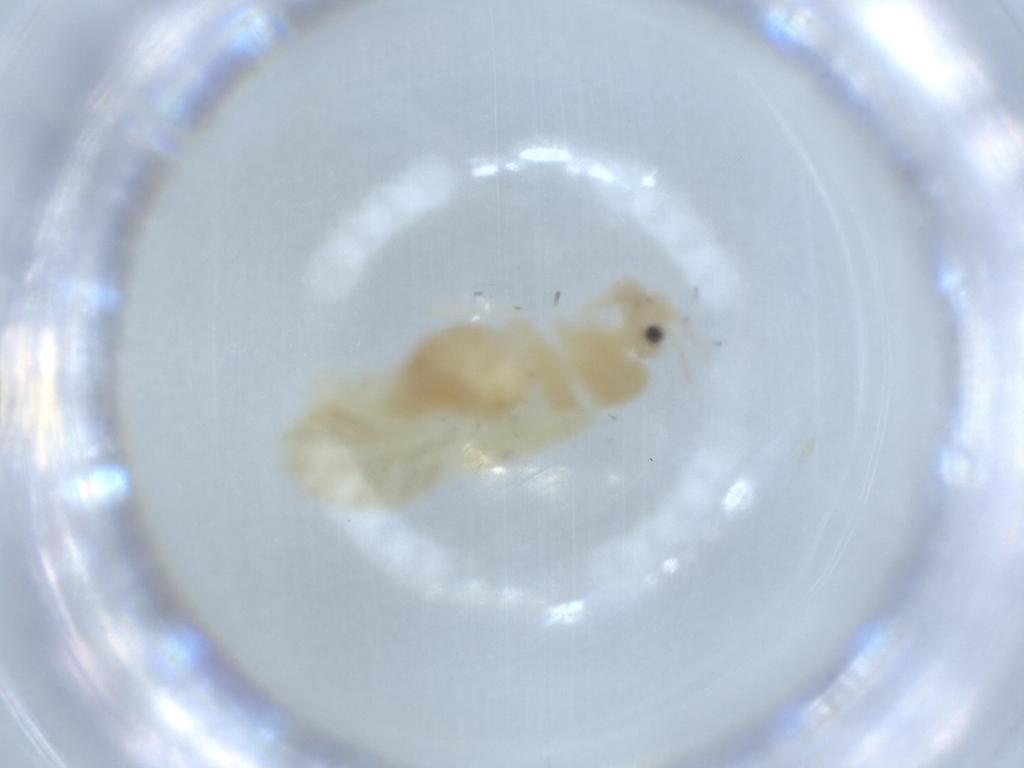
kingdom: Animalia
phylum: Arthropoda
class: Insecta
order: Psocodea
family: Caeciliusidae
